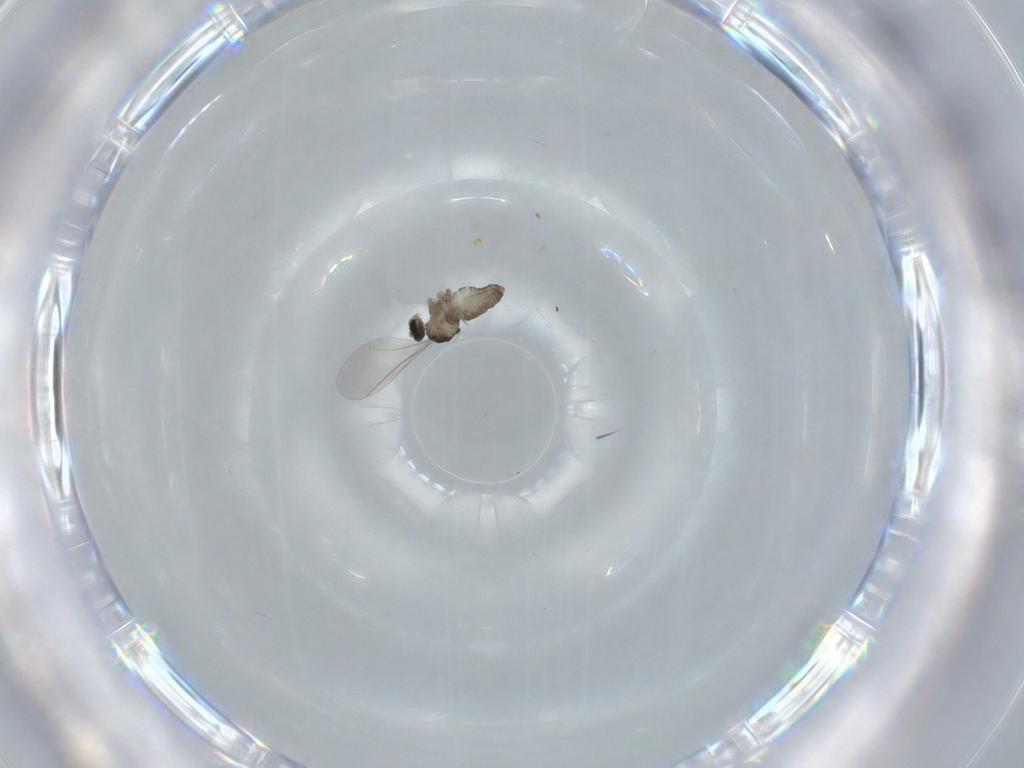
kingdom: Animalia
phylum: Arthropoda
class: Insecta
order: Diptera
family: Cecidomyiidae
